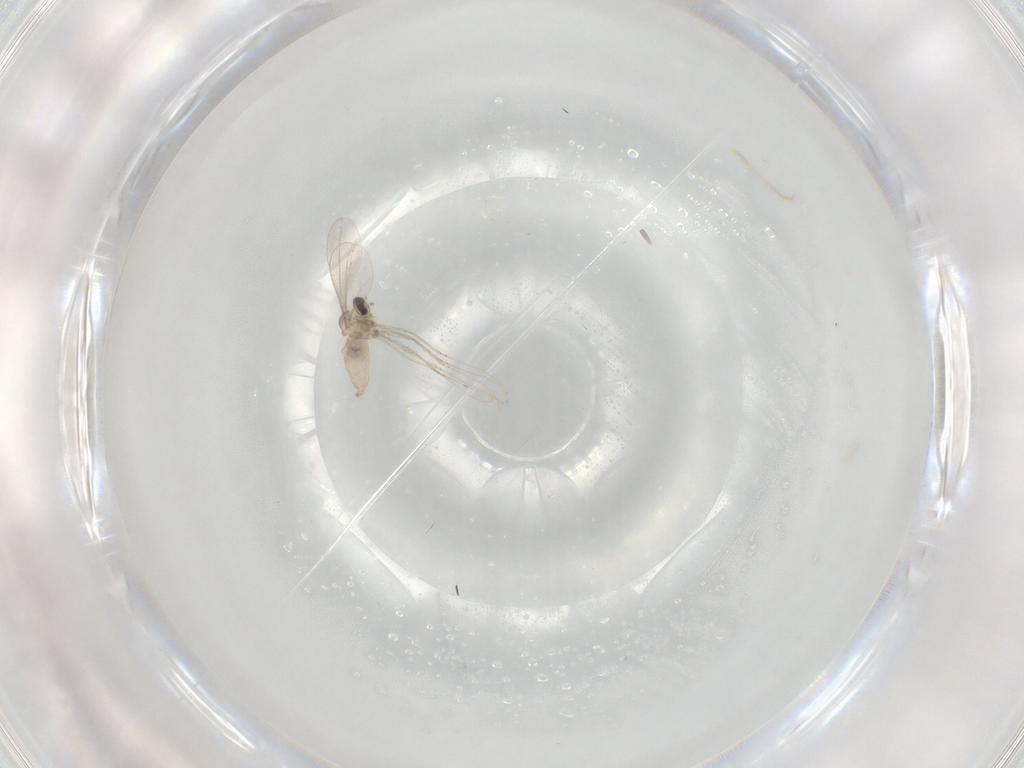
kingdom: Animalia
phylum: Arthropoda
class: Insecta
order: Diptera
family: Cecidomyiidae
